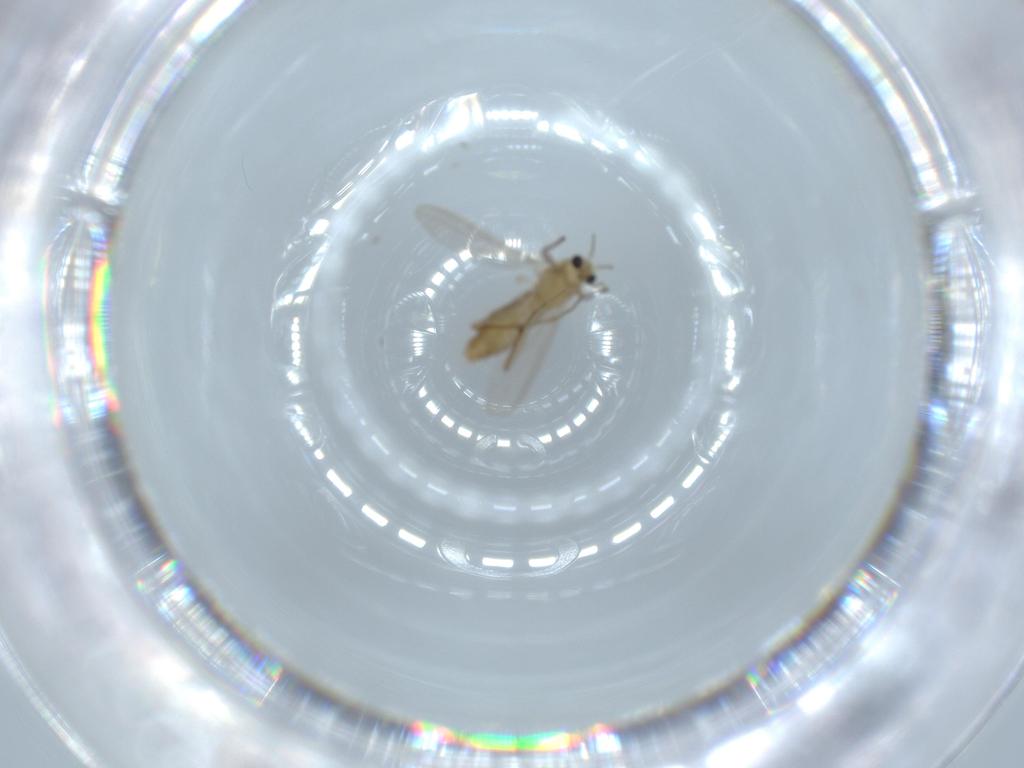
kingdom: Animalia
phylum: Arthropoda
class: Insecta
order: Diptera
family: Chironomidae
